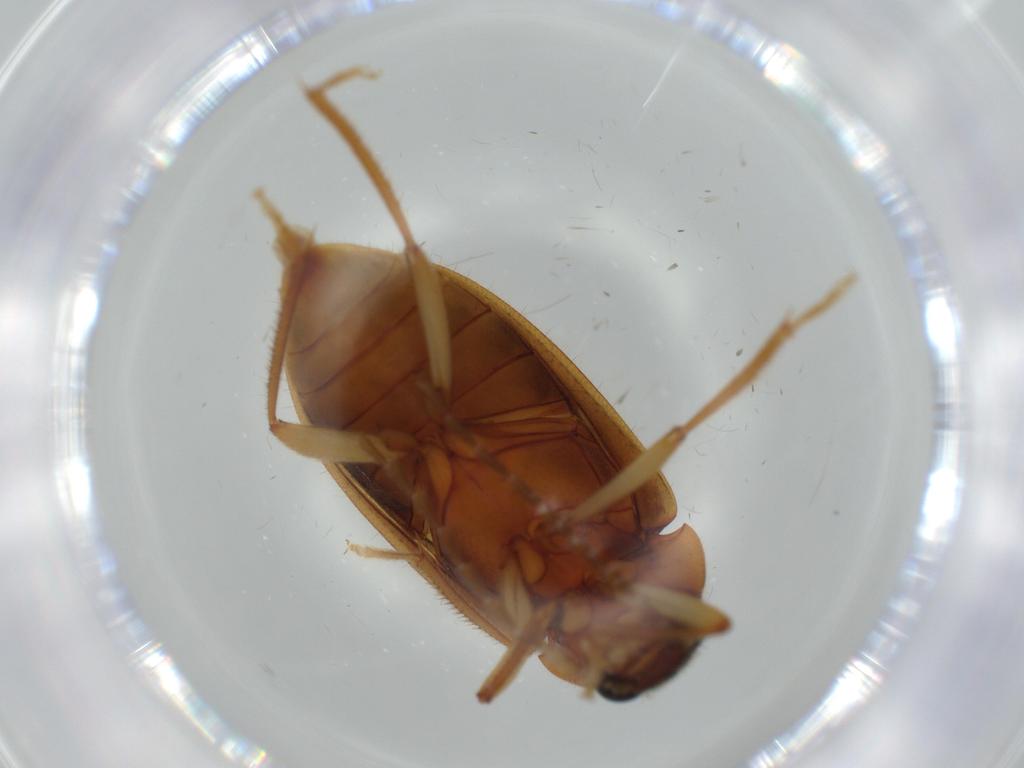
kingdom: Animalia
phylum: Arthropoda
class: Insecta
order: Coleoptera
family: Ptilodactylidae
